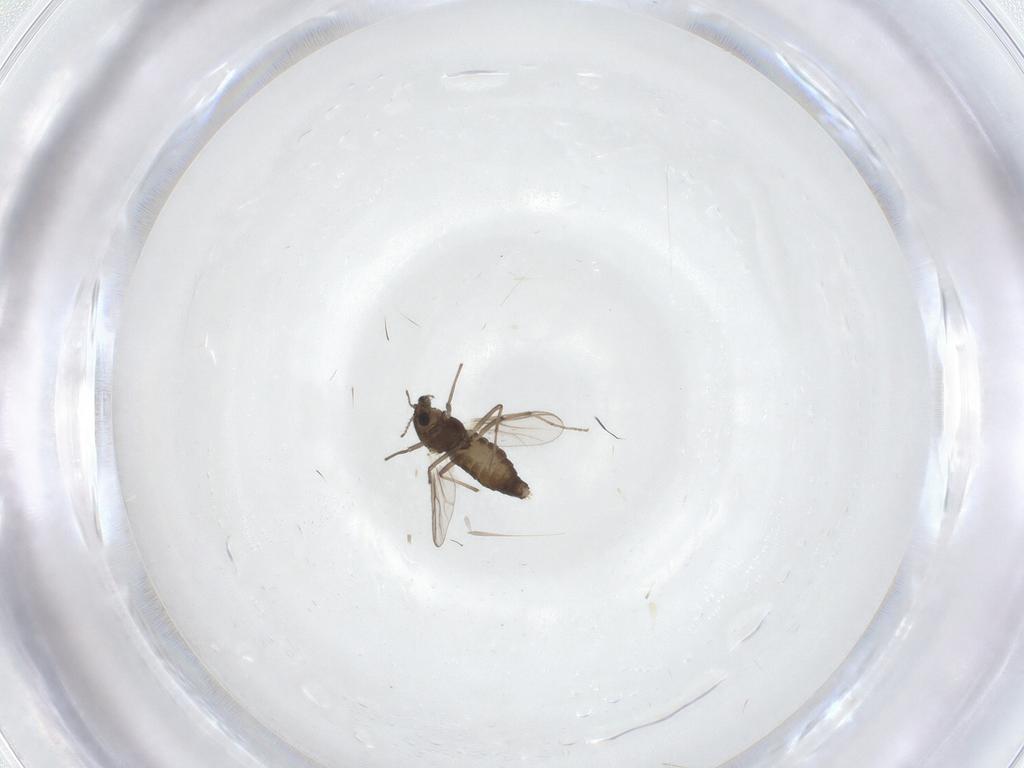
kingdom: Animalia
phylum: Arthropoda
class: Insecta
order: Diptera
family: Chironomidae
